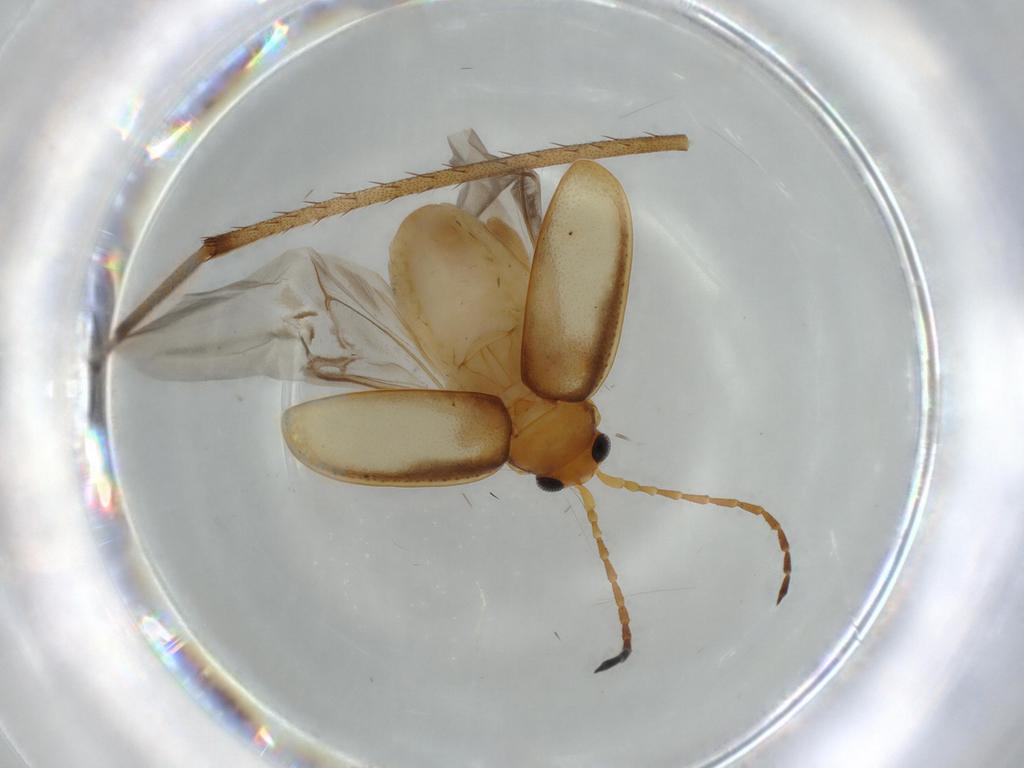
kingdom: Animalia
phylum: Arthropoda
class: Insecta
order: Coleoptera
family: Chrysomelidae
